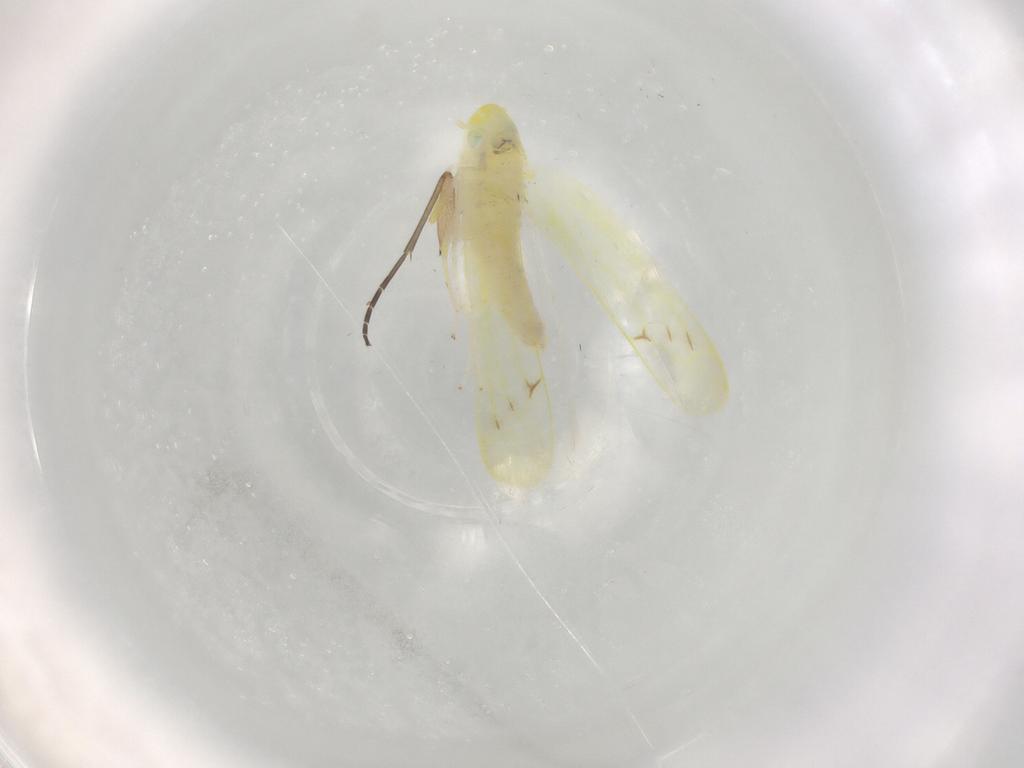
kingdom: Animalia
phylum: Arthropoda
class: Insecta
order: Hemiptera
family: Cicadellidae
